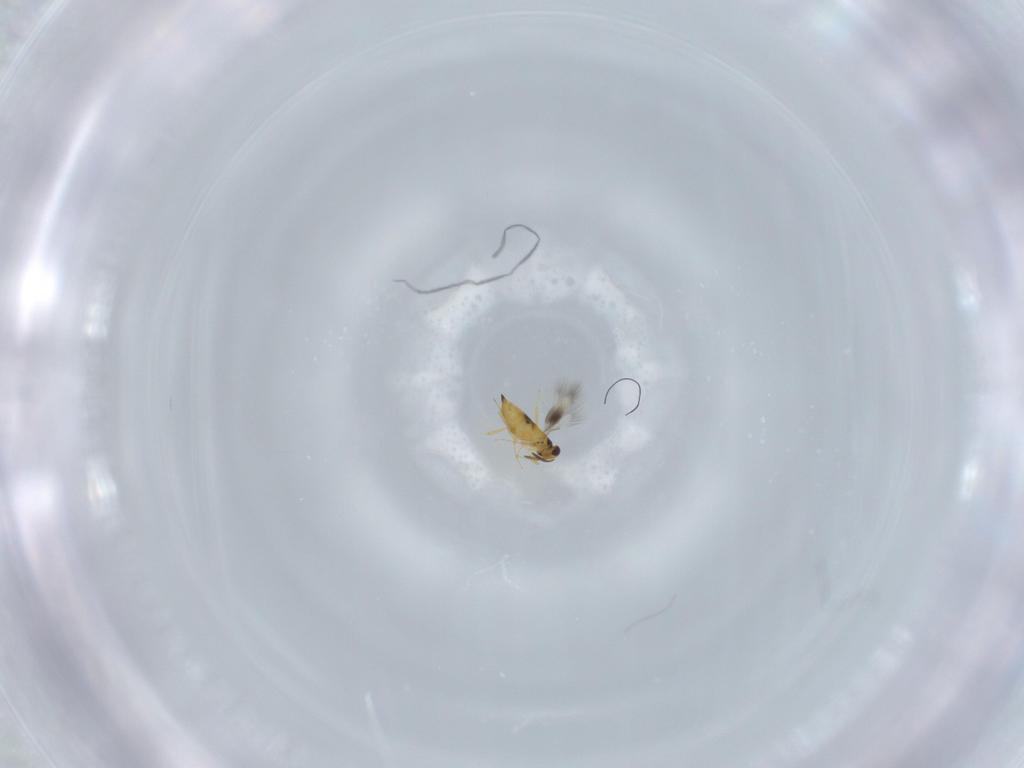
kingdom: Animalia
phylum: Arthropoda
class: Insecta
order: Hymenoptera
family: Signiphoridae
